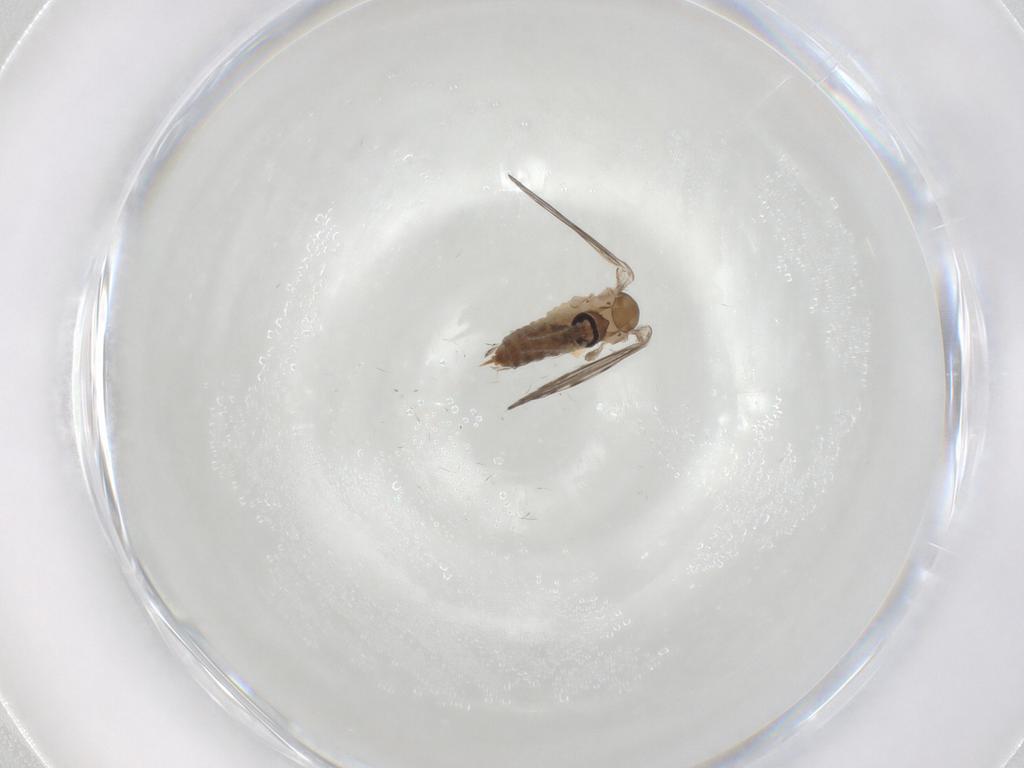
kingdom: Animalia
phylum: Arthropoda
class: Insecta
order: Diptera
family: Psychodidae
